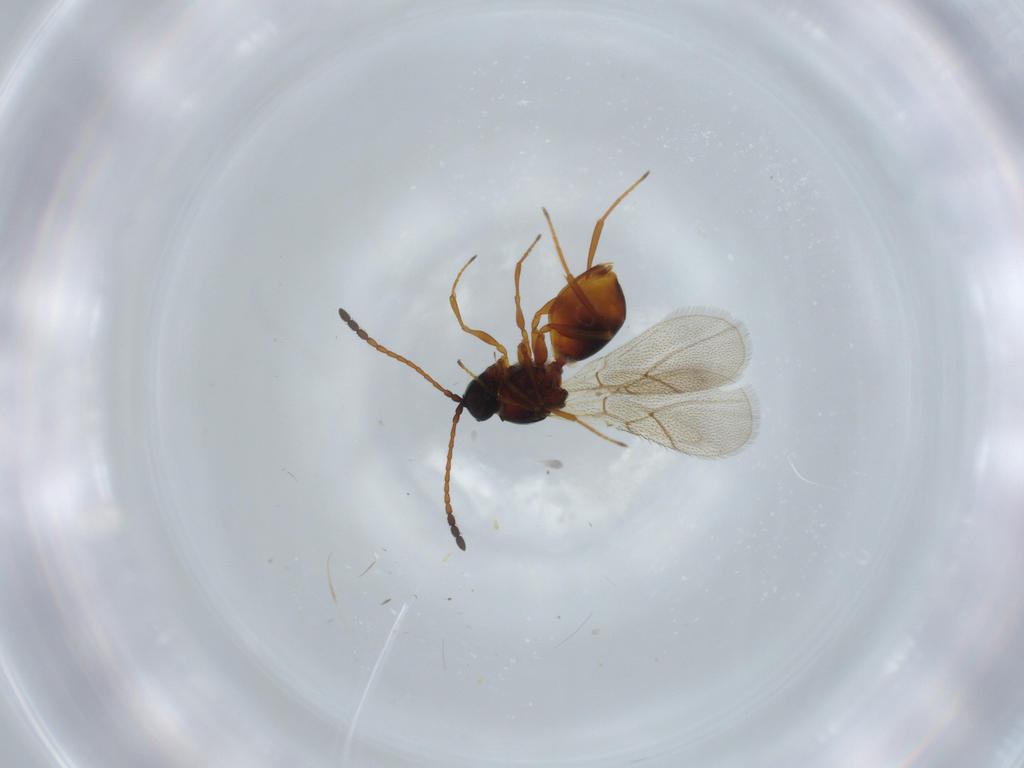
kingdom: Animalia
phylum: Arthropoda
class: Insecta
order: Hymenoptera
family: Figitidae
